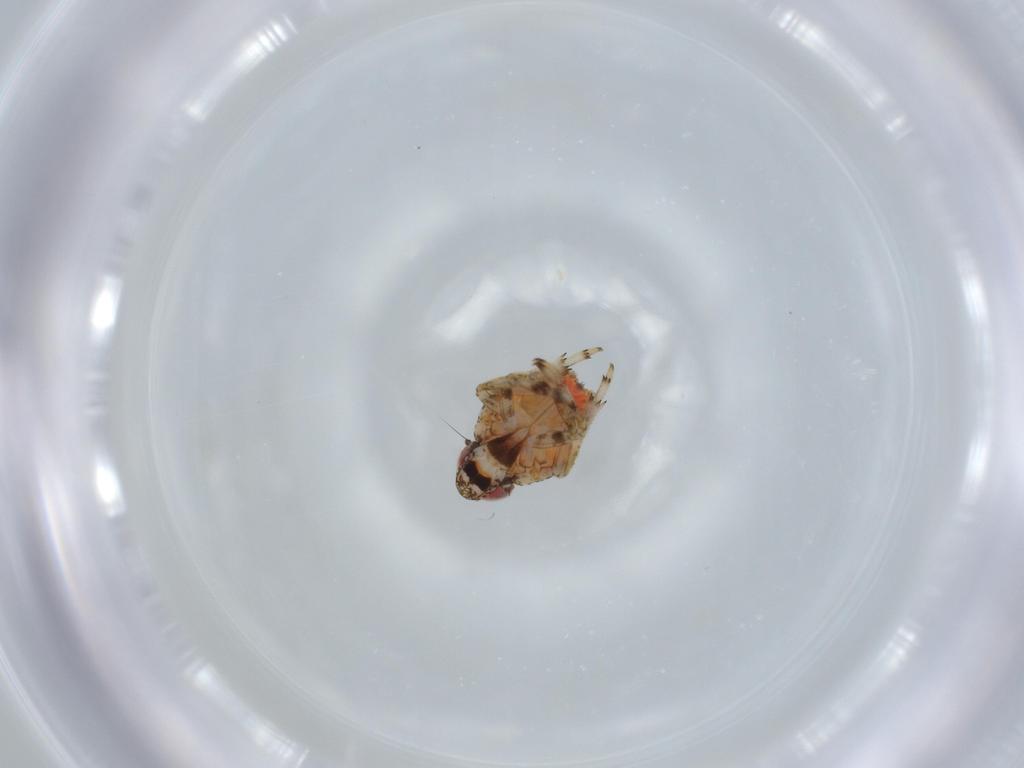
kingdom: Animalia
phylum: Arthropoda
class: Insecta
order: Hemiptera
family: Issidae
